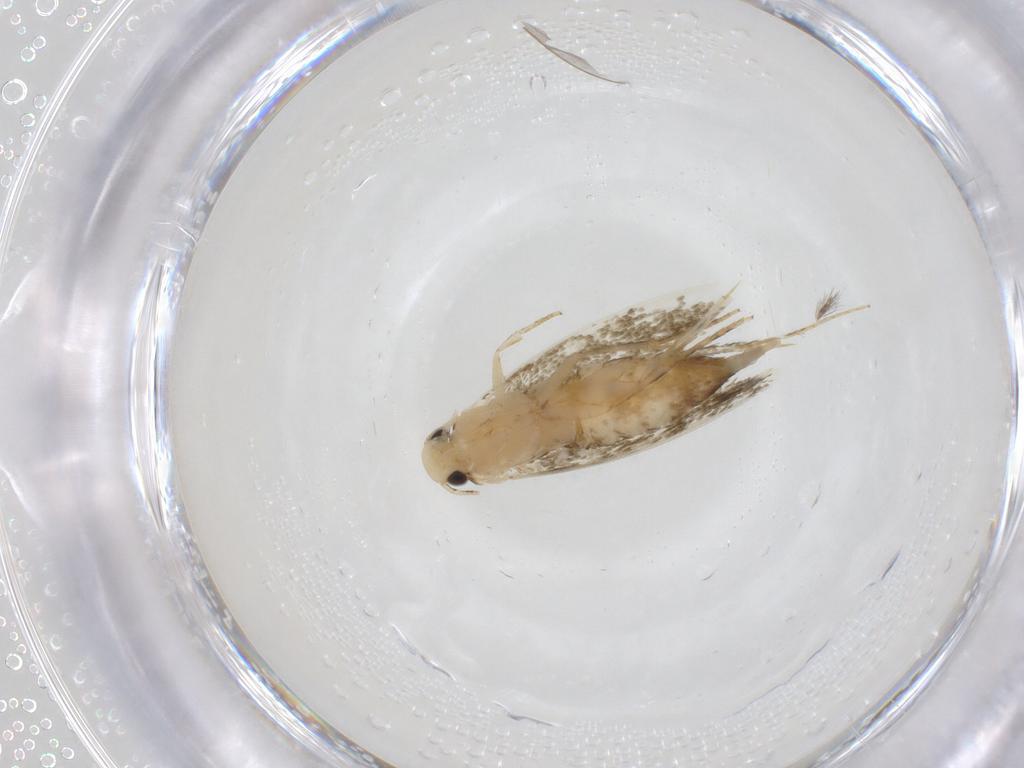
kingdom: Animalia
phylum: Arthropoda
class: Insecta
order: Lepidoptera
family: Tineidae
